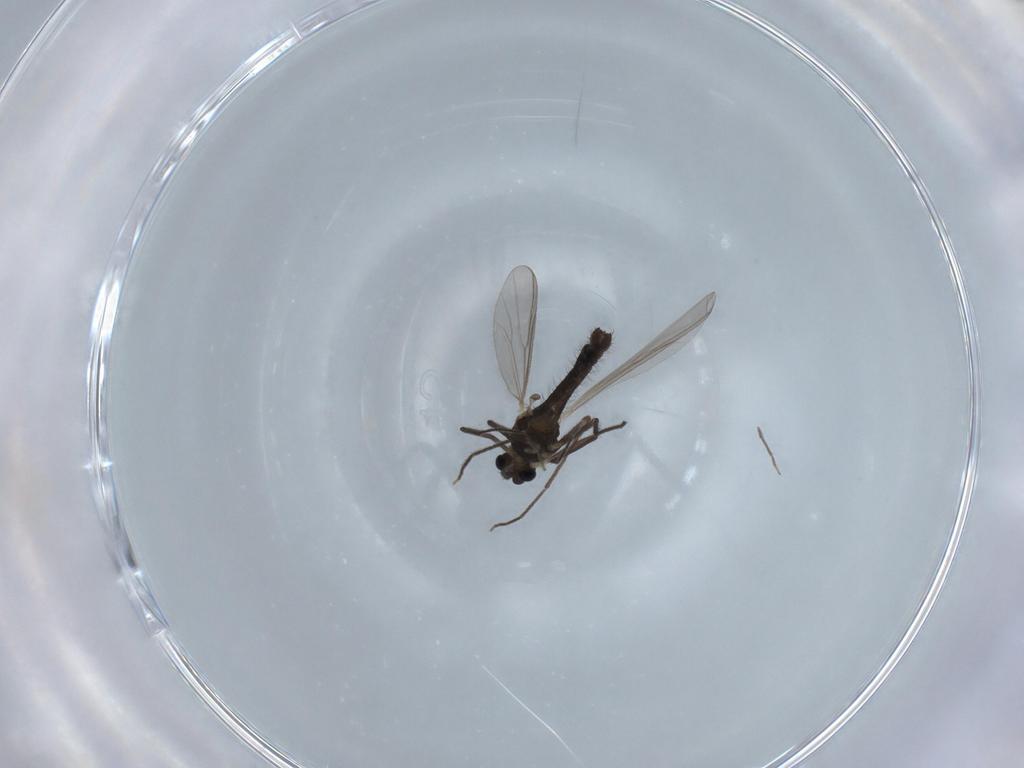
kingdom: Animalia
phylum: Arthropoda
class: Insecta
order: Diptera
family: Chironomidae
